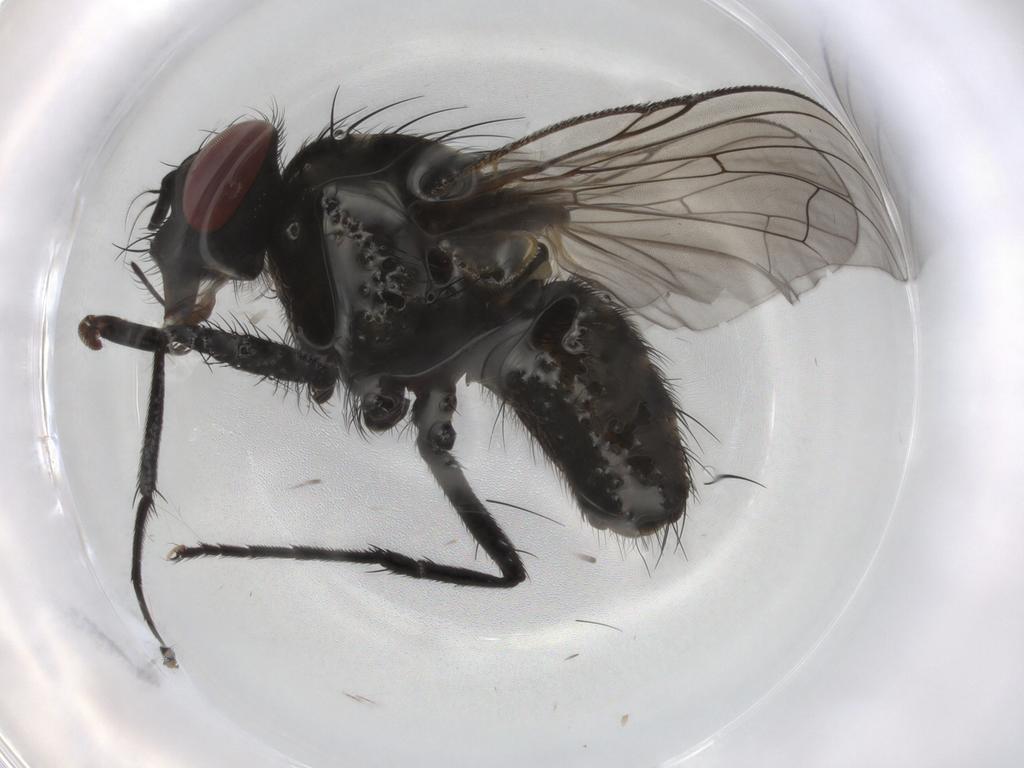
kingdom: Animalia
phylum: Arthropoda
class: Insecta
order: Diptera
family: Muscidae
